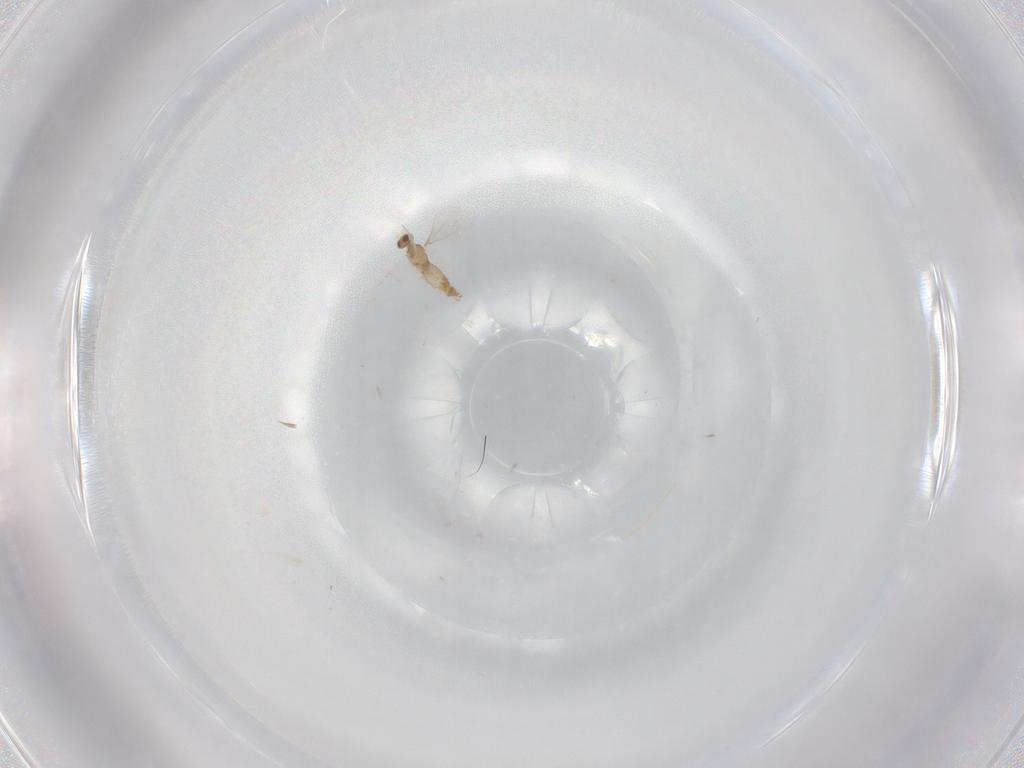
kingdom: Animalia
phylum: Arthropoda
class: Insecta
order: Diptera
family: Cecidomyiidae
